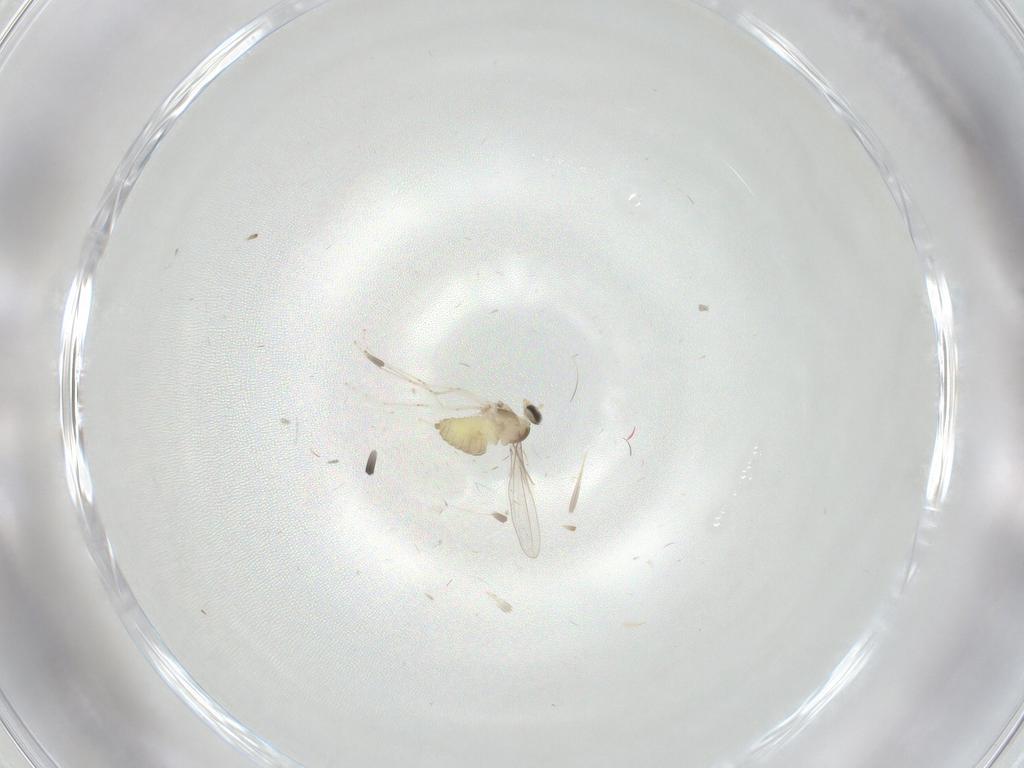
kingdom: Animalia
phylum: Arthropoda
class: Insecta
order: Diptera
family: Cecidomyiidae
